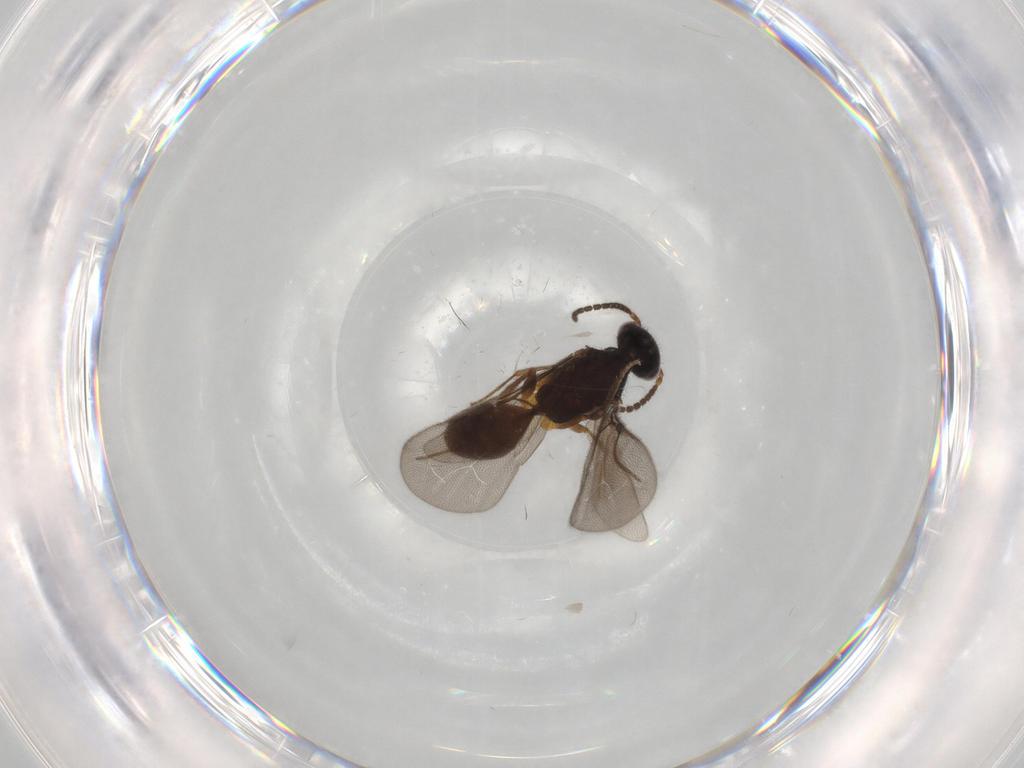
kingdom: Animalia
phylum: Arthropoda
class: Insecta
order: Hymenoptera
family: Bethylidae
